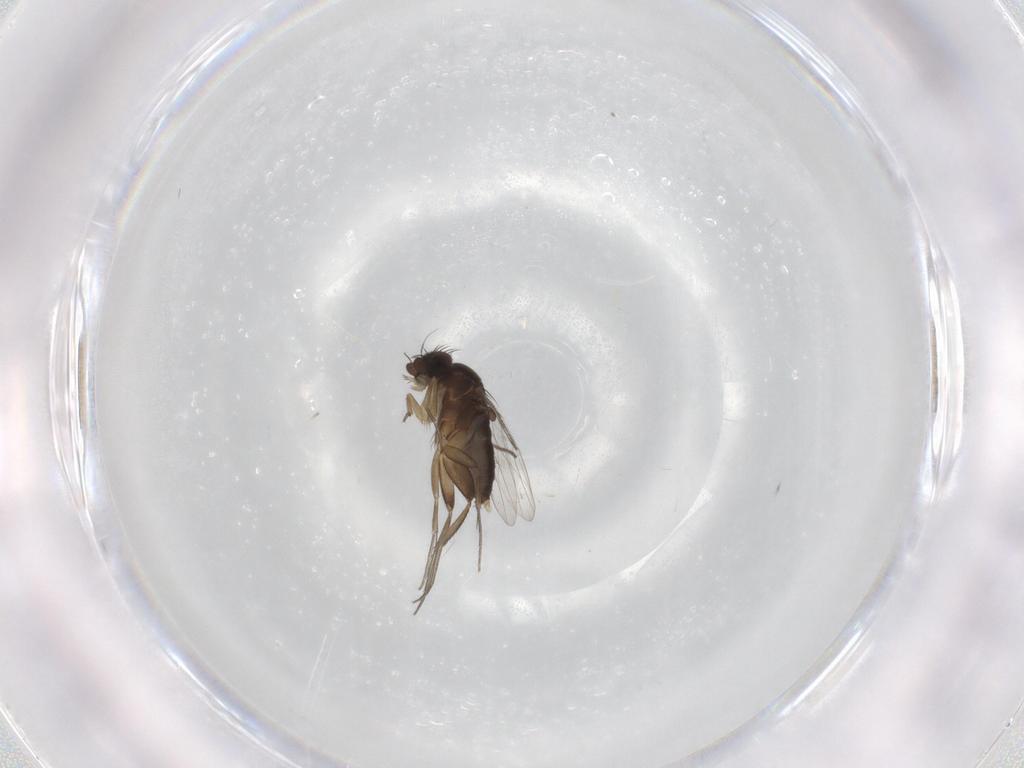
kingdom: Animalia
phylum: Arthropoda
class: Insecta
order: Diptera
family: Phoridae
